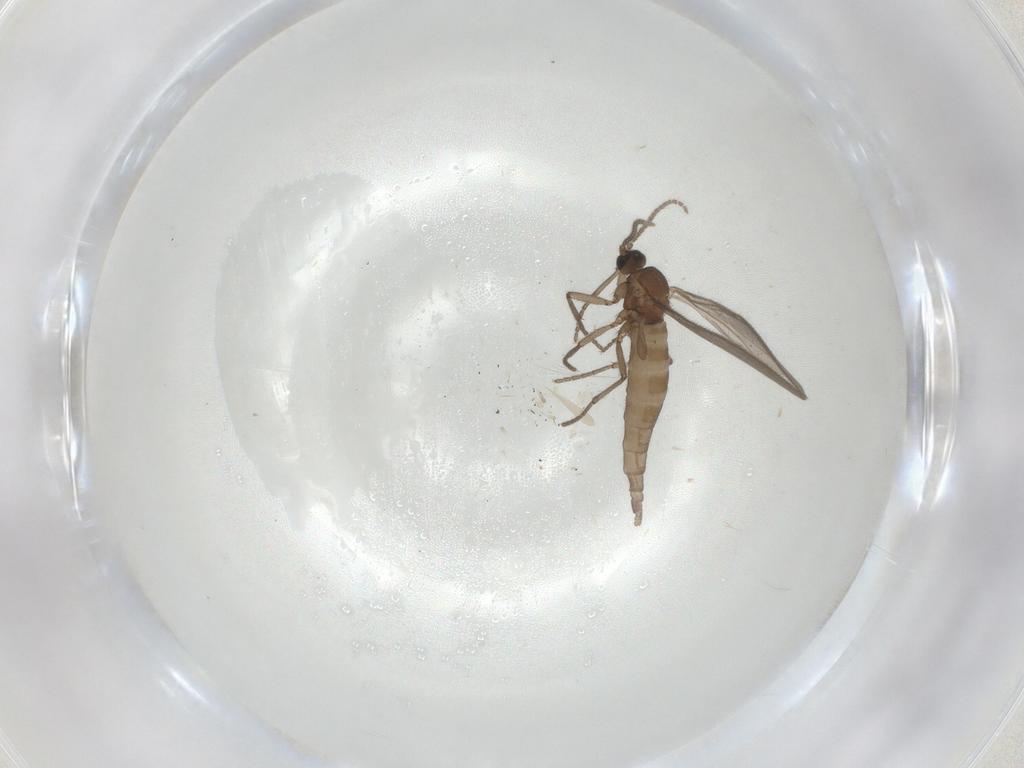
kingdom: Animalia
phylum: Arthropoda
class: Insecta
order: Diptera
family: Sciaridae
